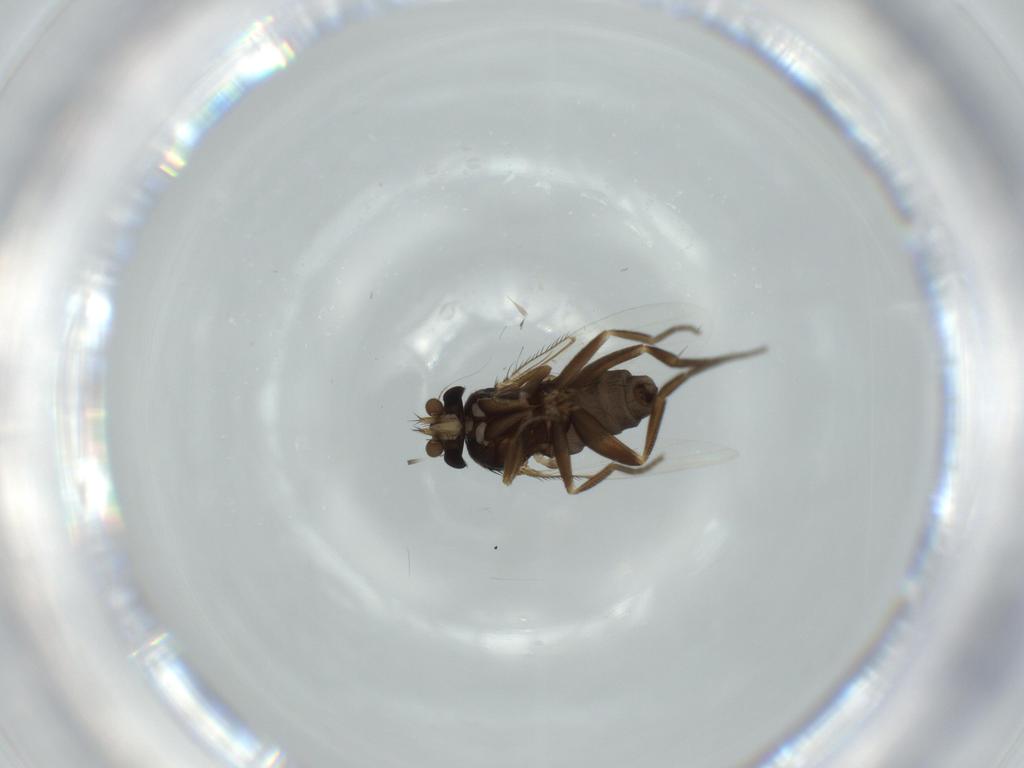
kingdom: Animalia
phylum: Arthropoda
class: Insecta
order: Diptera
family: Phoridae
